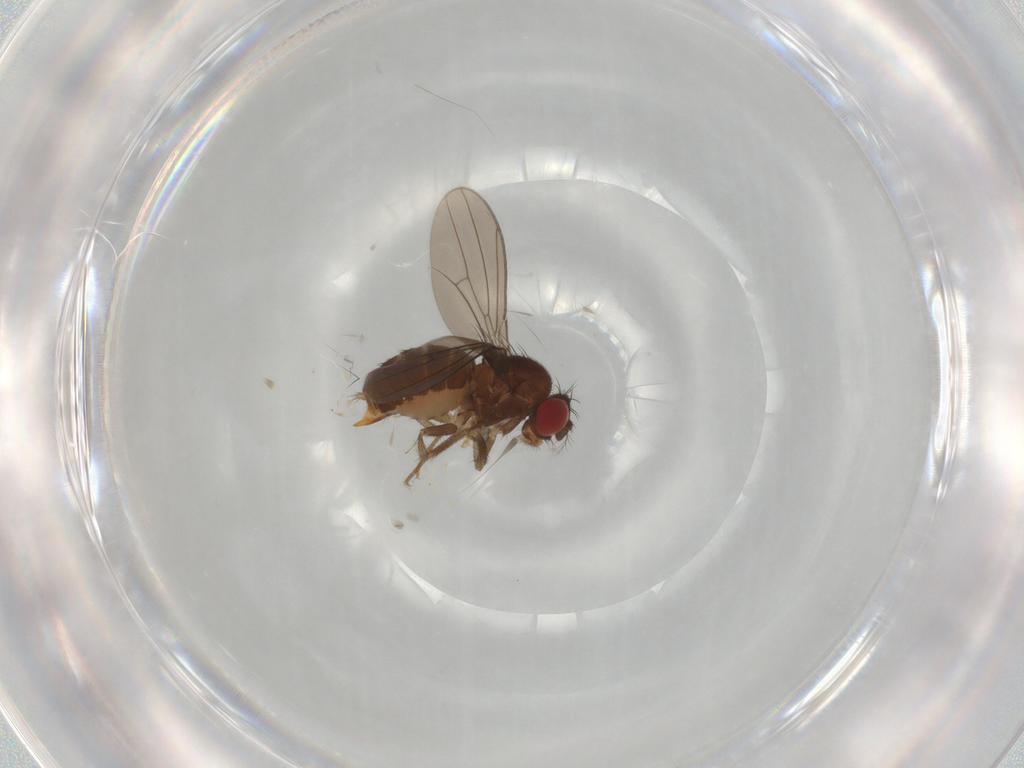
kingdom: Animalia
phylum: Arthropoda
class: Insecta
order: Diptera
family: Drosophilidae
